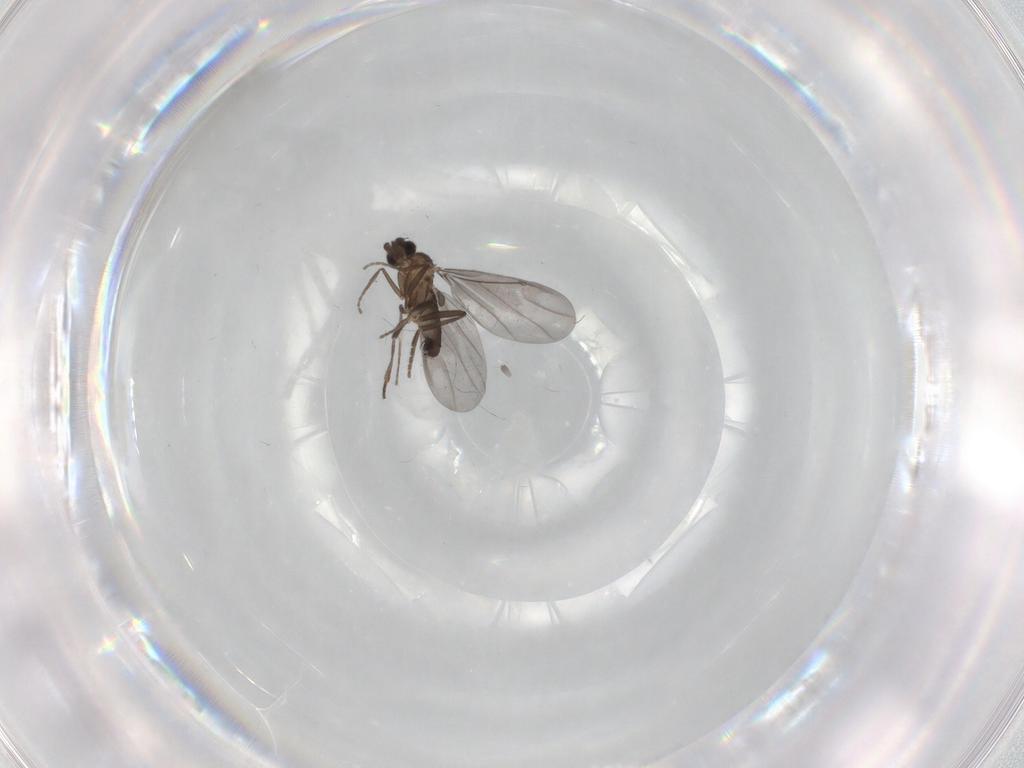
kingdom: Animalia
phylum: Arthropoda
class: Insecta
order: Diptera
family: Phoridae
